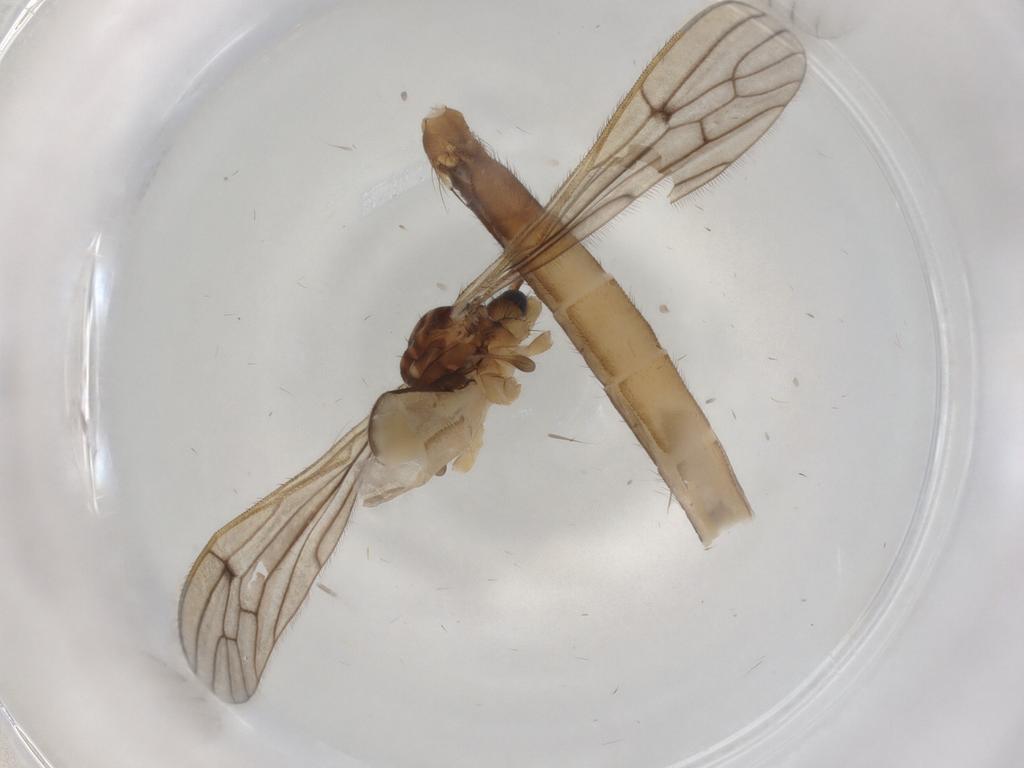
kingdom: Animalia
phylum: Arthropoda
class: Insecta
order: Diptera
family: Limoniidae
